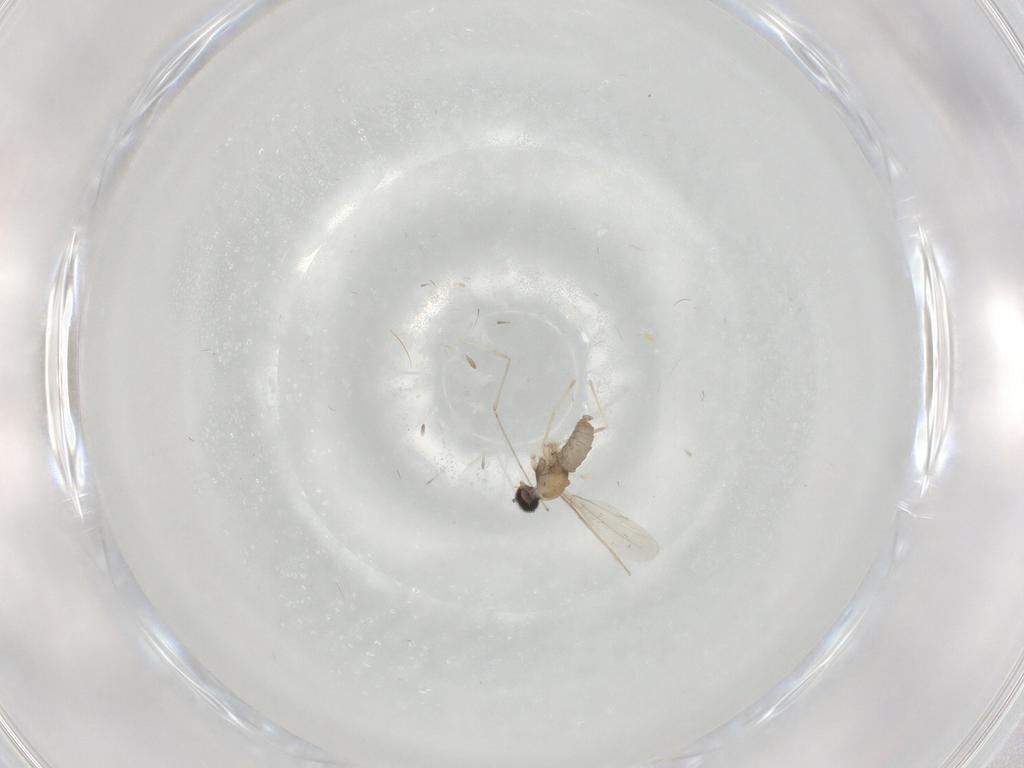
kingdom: Animalia
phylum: Arthropoda
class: Insecta
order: Diptera
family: Cecidomyiidae
